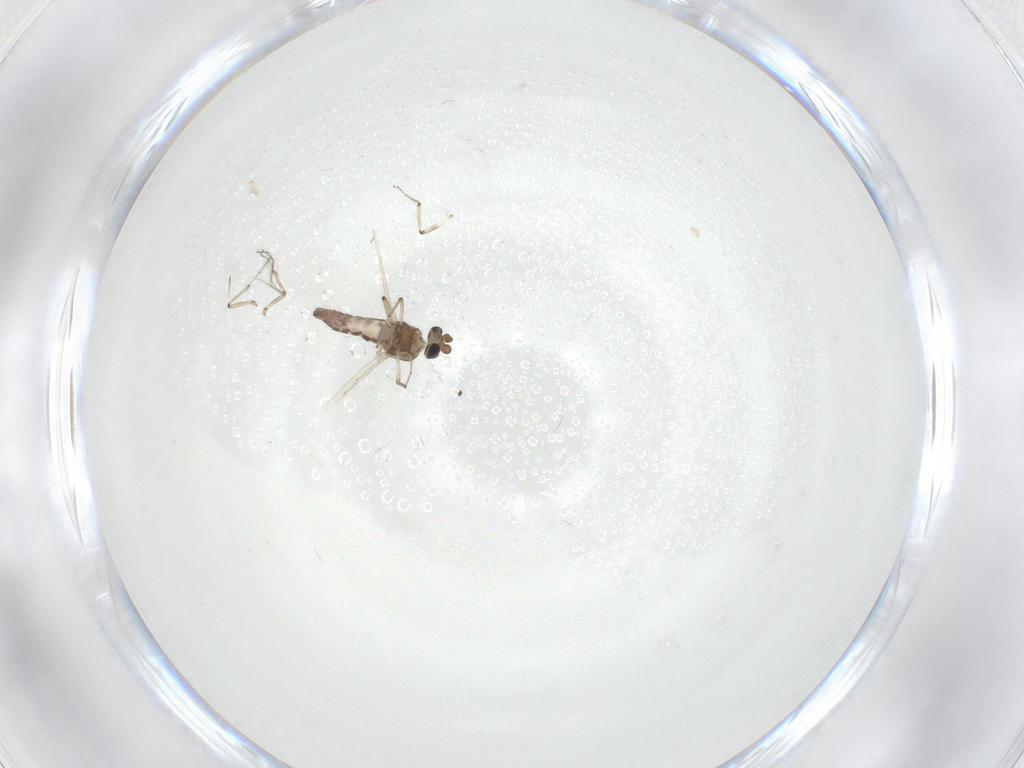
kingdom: Animalia
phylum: Arthropoda
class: Insecta
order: Diptera
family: Ceratopogonidae
